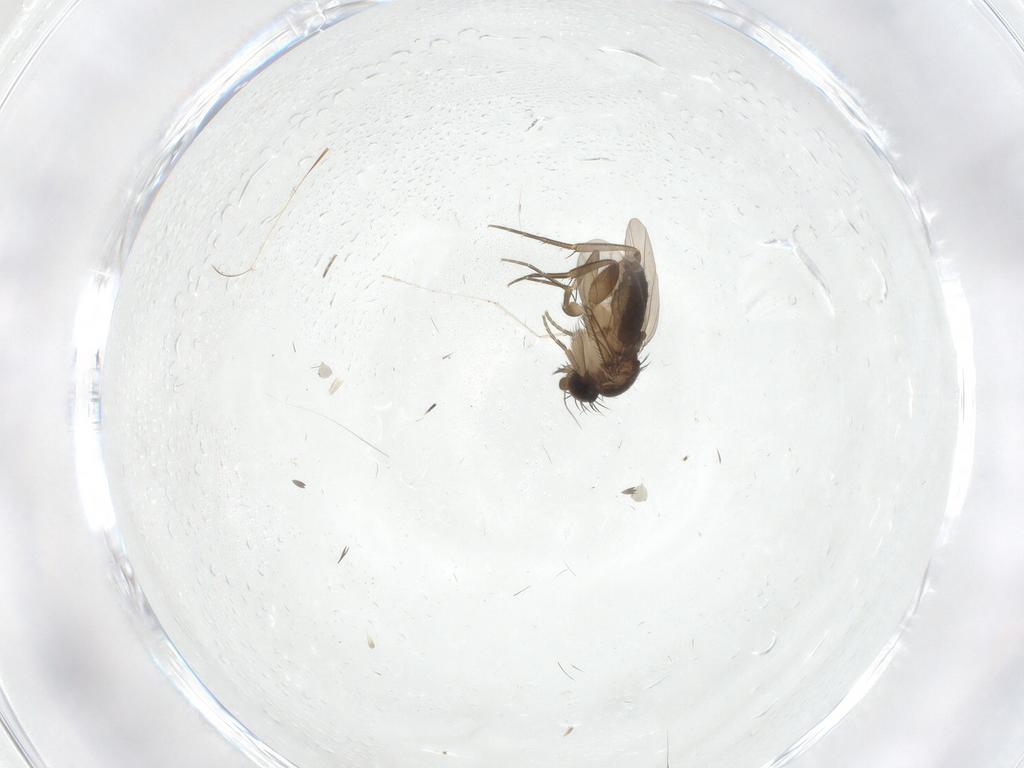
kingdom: Animalia
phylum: Arthropoda
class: Insecta
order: Diptera
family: Phoridae
